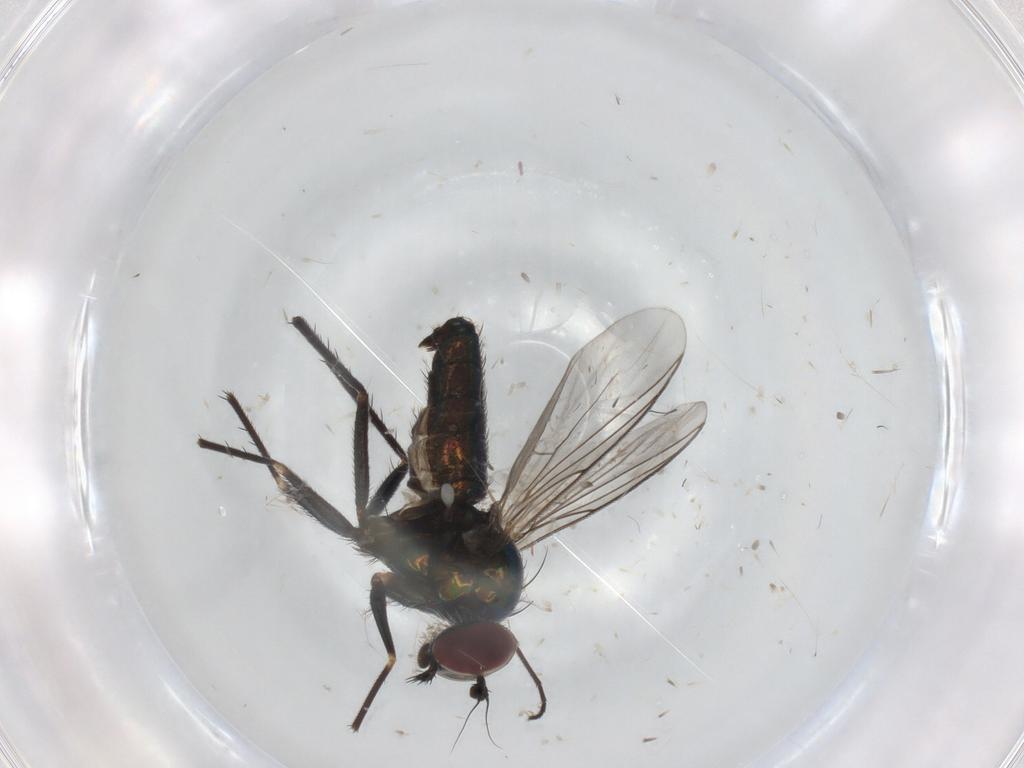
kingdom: Animalia
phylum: Arthropoda
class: Insecta
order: Diptera
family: Dolichopodidae
